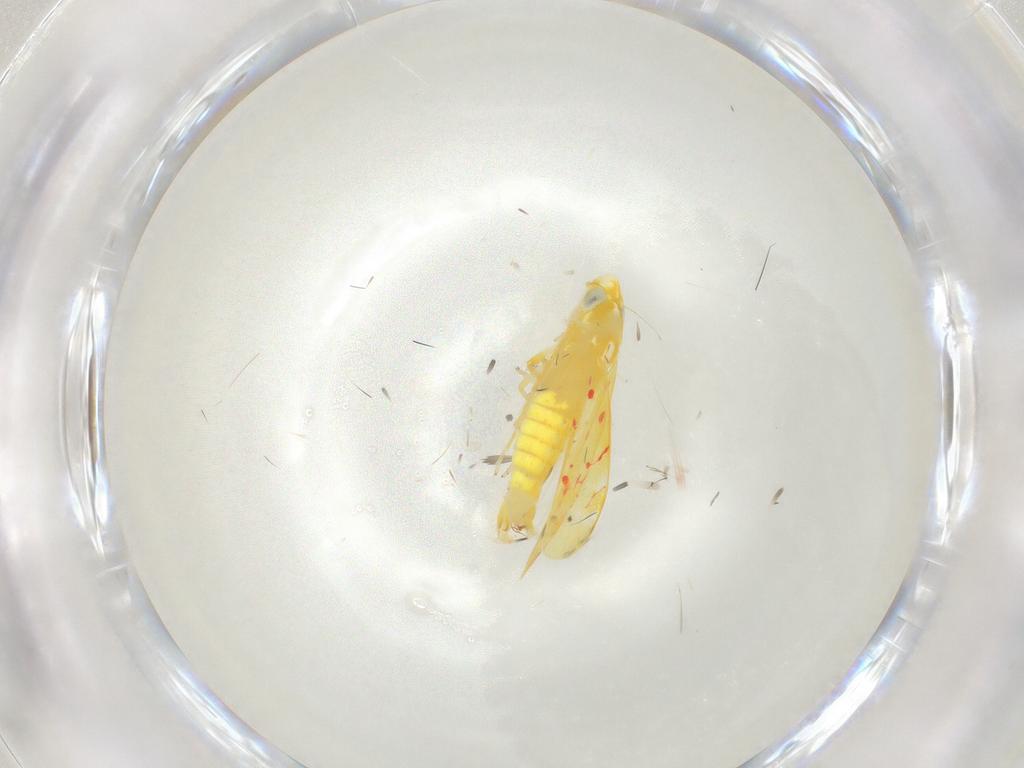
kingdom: Animalia
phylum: Arthropoda
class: Insecta
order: Hemiptera
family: Cicadellidae
